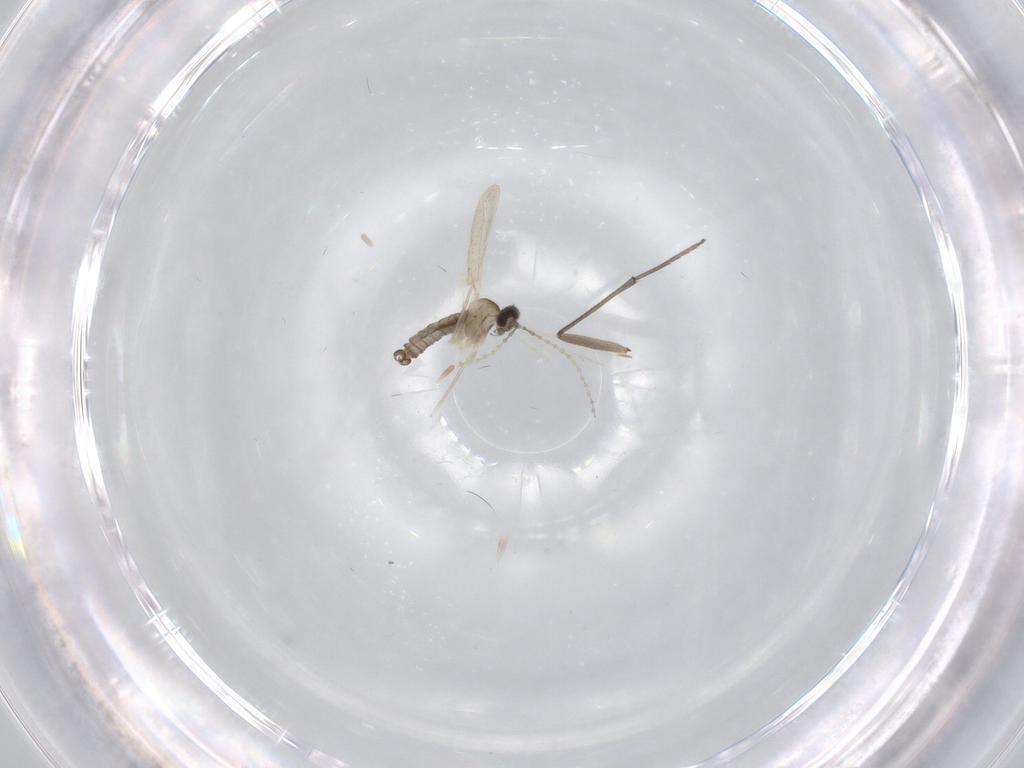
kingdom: Animalia
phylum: Arthropoda
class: Insecta
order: Diptera
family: Cecidomyiidae
